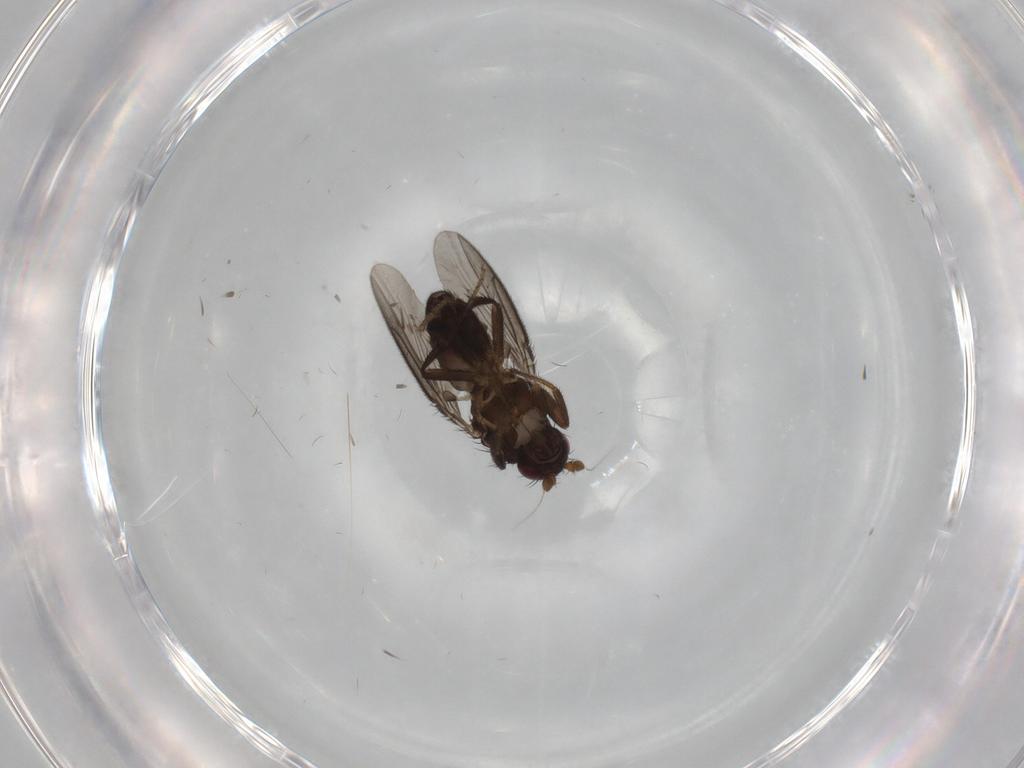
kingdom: Animalia
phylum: Arthropoda
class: Insecta
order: Diptera
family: Sphaeroceridae
